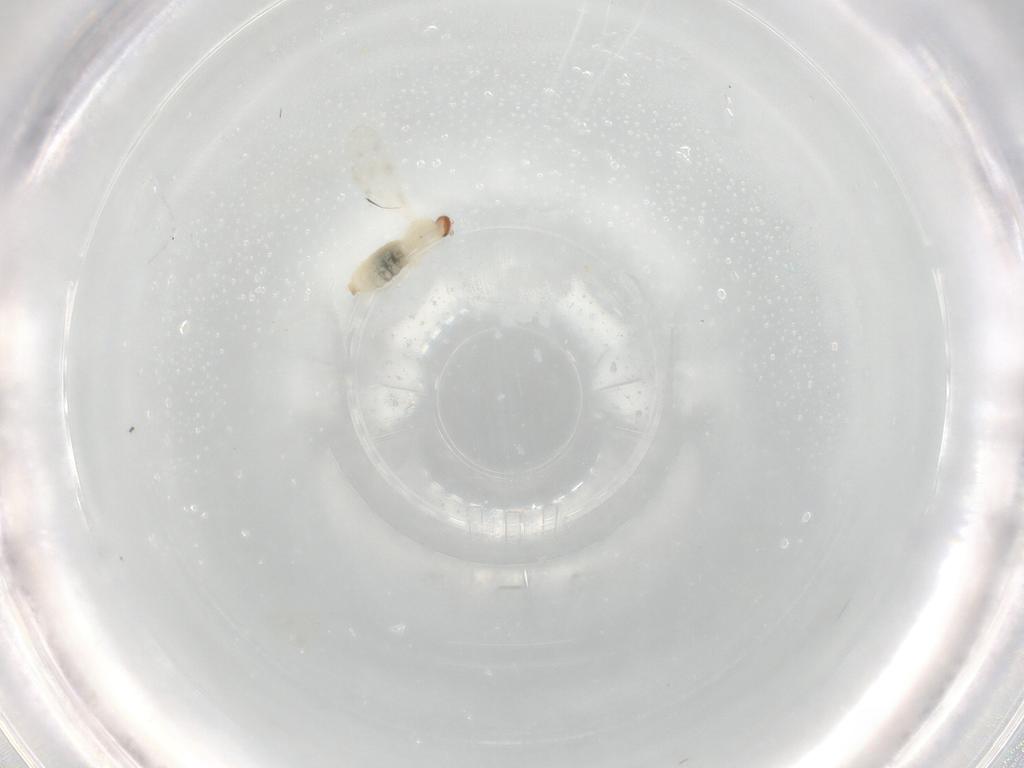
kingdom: Animalia
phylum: Arthropoda
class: Insecta
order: Diptera
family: Cecidomyiidae
